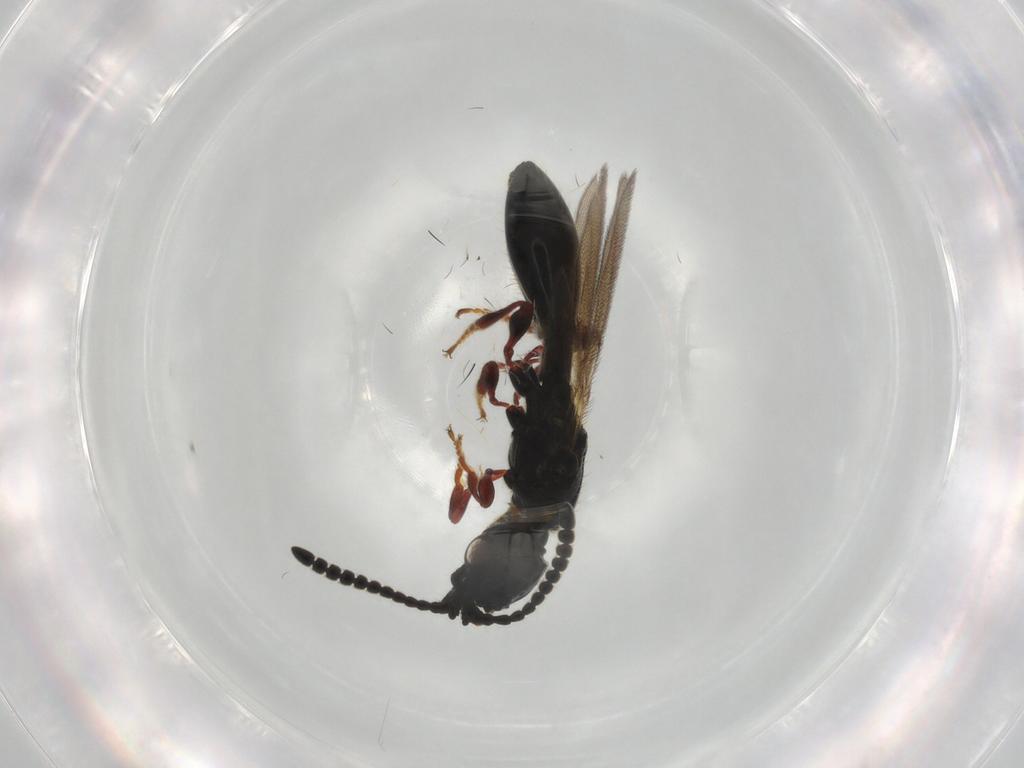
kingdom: Animalia
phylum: Arthropoda
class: Insecta
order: Hymenoptera
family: Diapriidae
